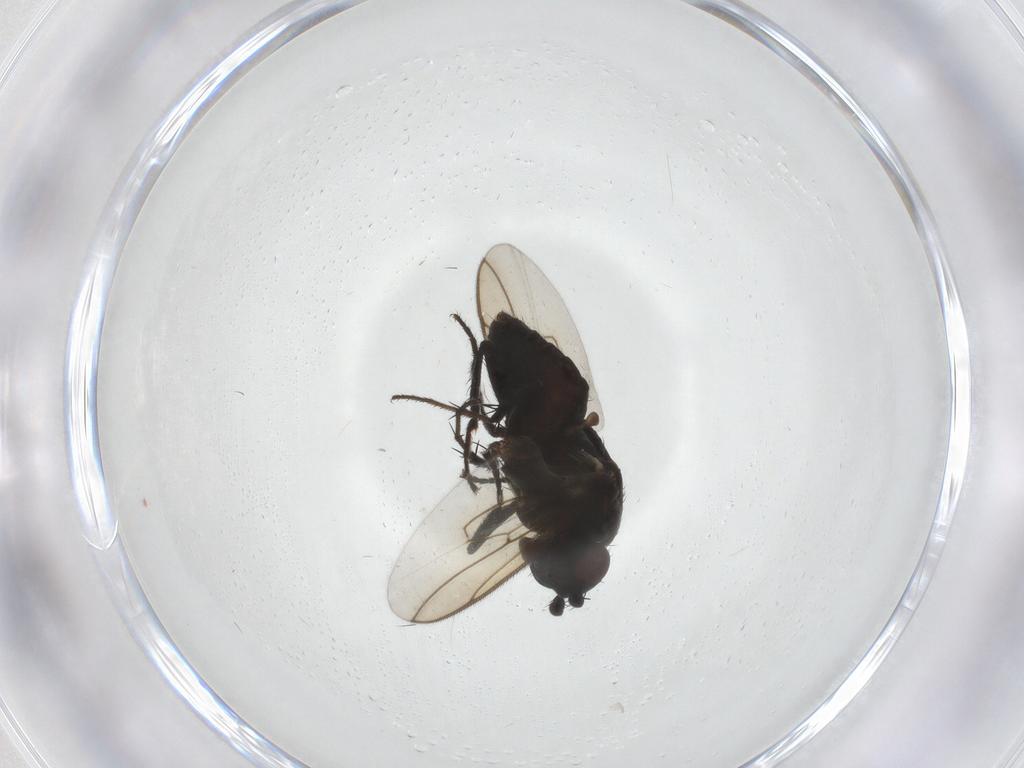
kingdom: Animalia
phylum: Arthropoda
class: Insecta
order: Diptera
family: Sphaeroceridae
